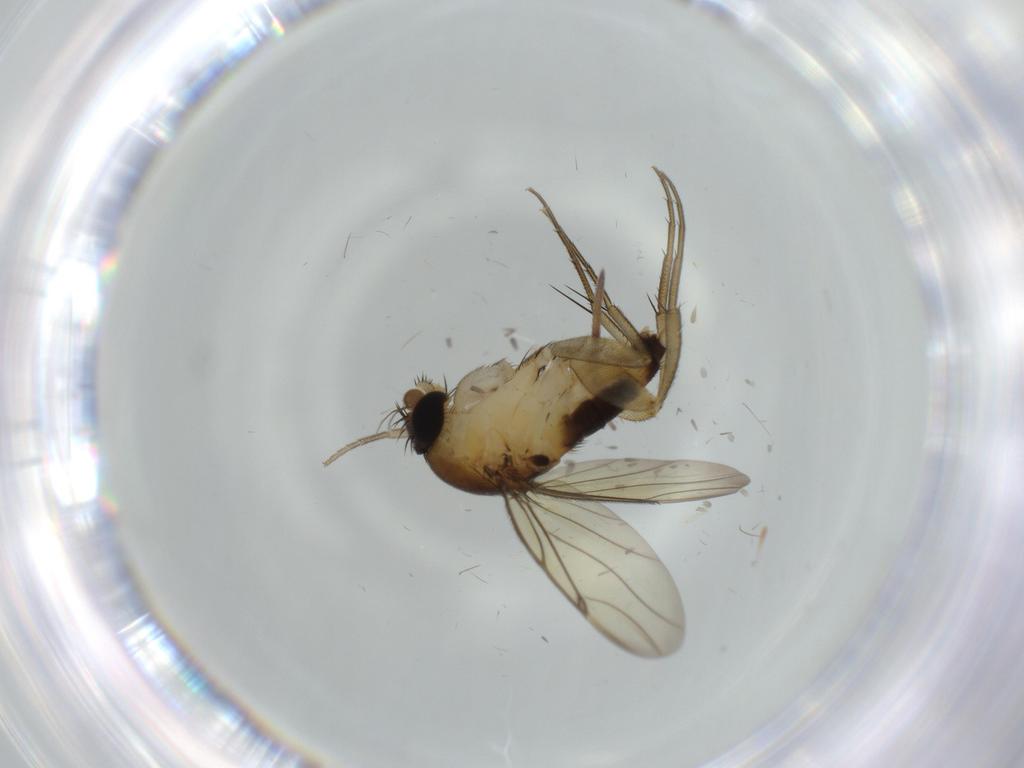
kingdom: Animalia
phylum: Arthropoda
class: Insecta
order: Diptera
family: Phoridae
